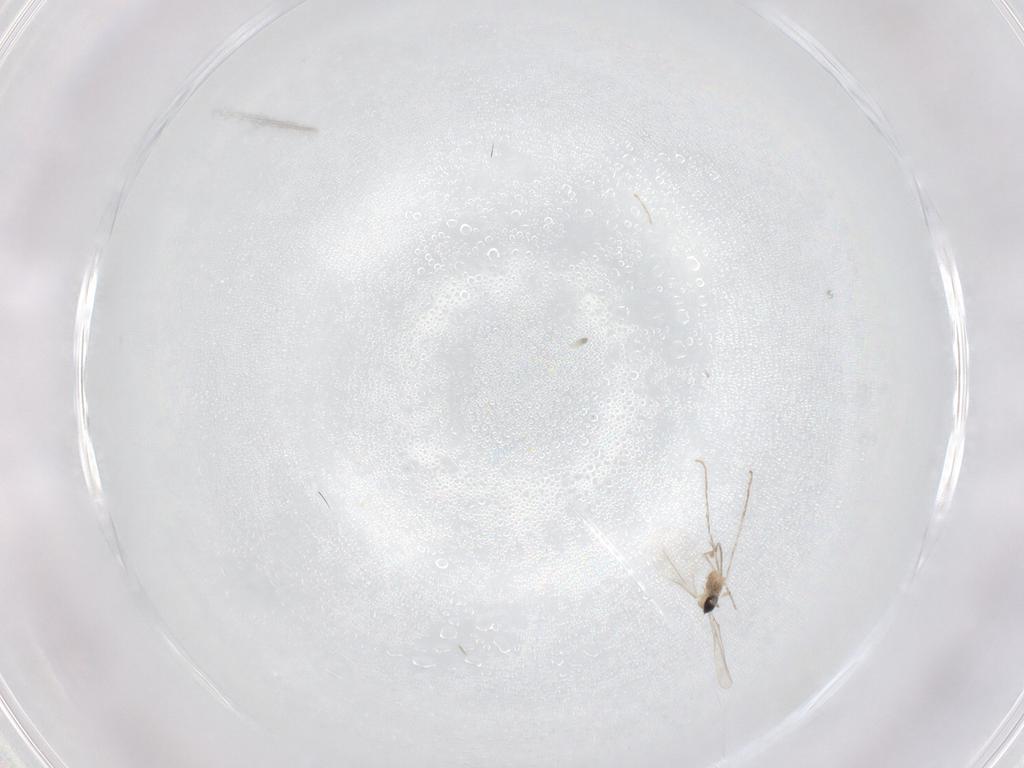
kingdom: Animalia
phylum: Arthropoda
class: Insecta
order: Diptera
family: Cecidomyiidae
